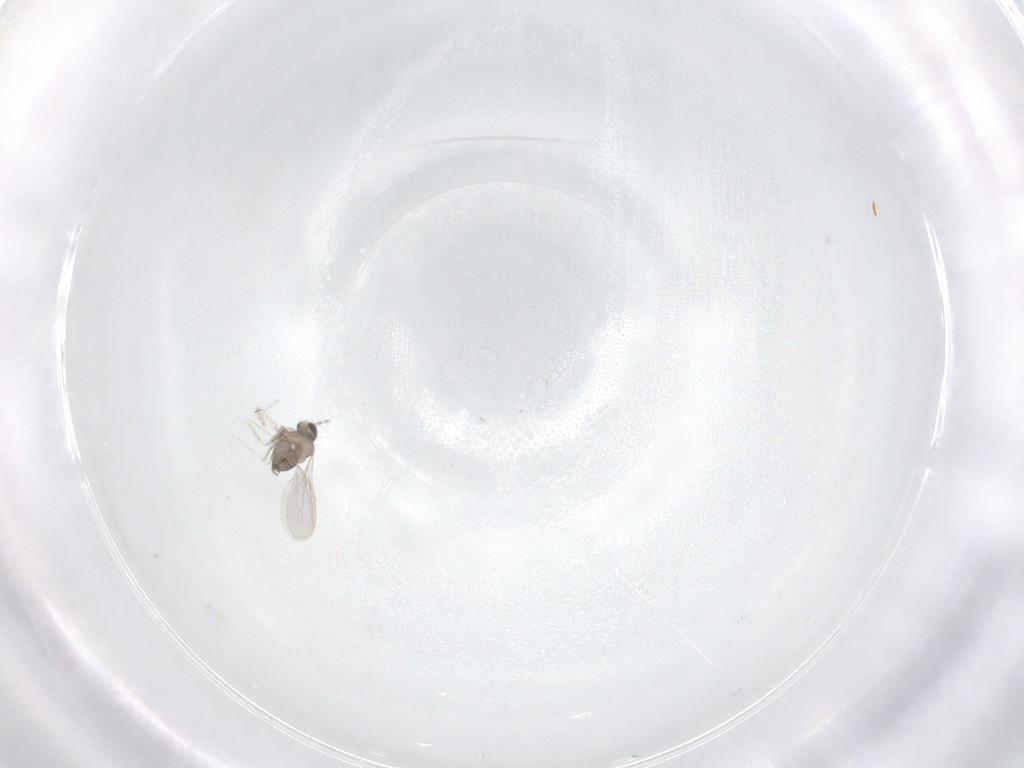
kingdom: Animalia
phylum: Arthropoda
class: Insecta
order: Diptera
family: Cecidomyiidae
